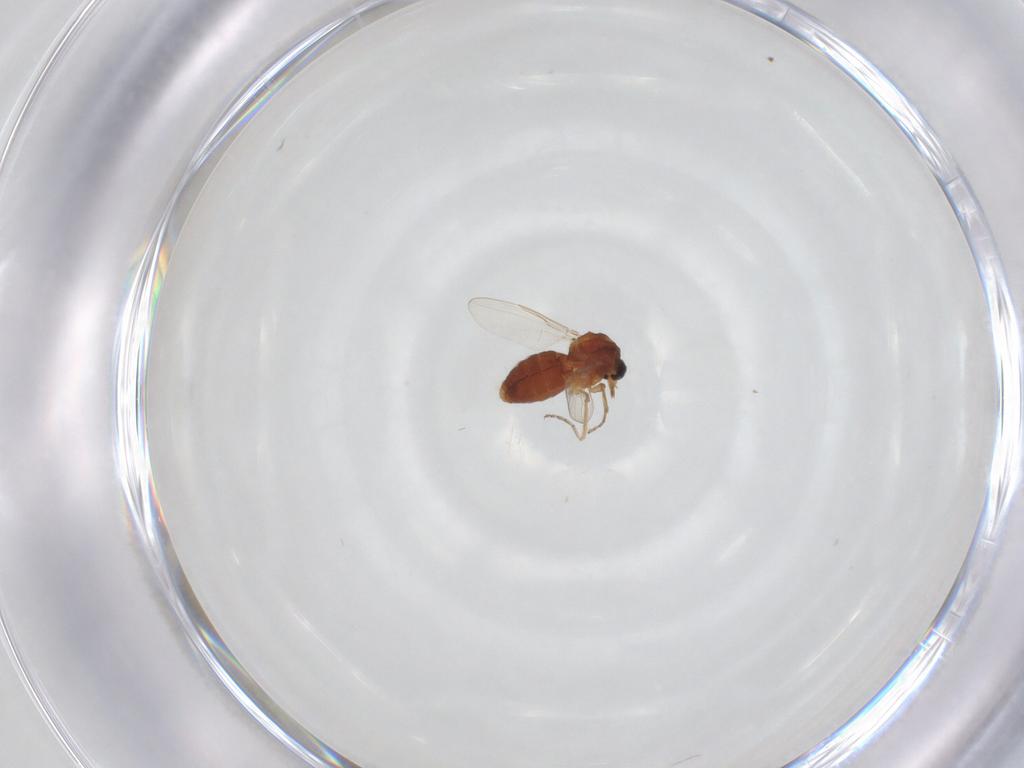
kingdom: Animalia
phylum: Arthropoda
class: Insecta
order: Diptera
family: Ceratopogonidae
